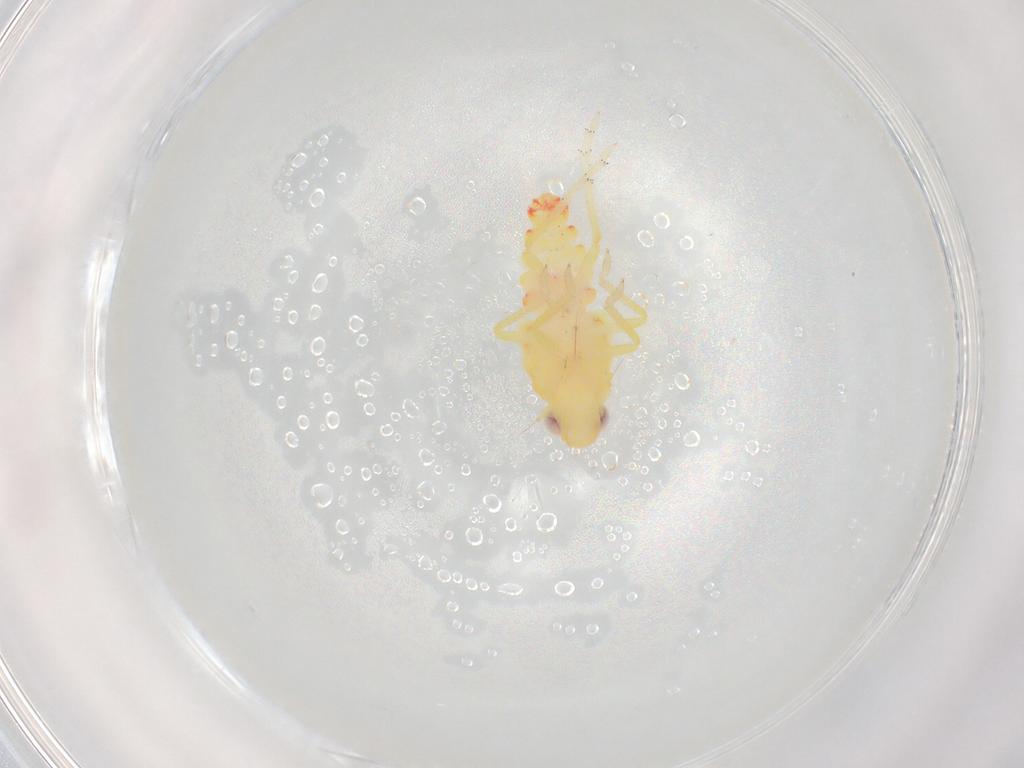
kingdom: Animalia
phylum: Arthropoda
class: Insecta
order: Hemiptera
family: Tropiduchidae
